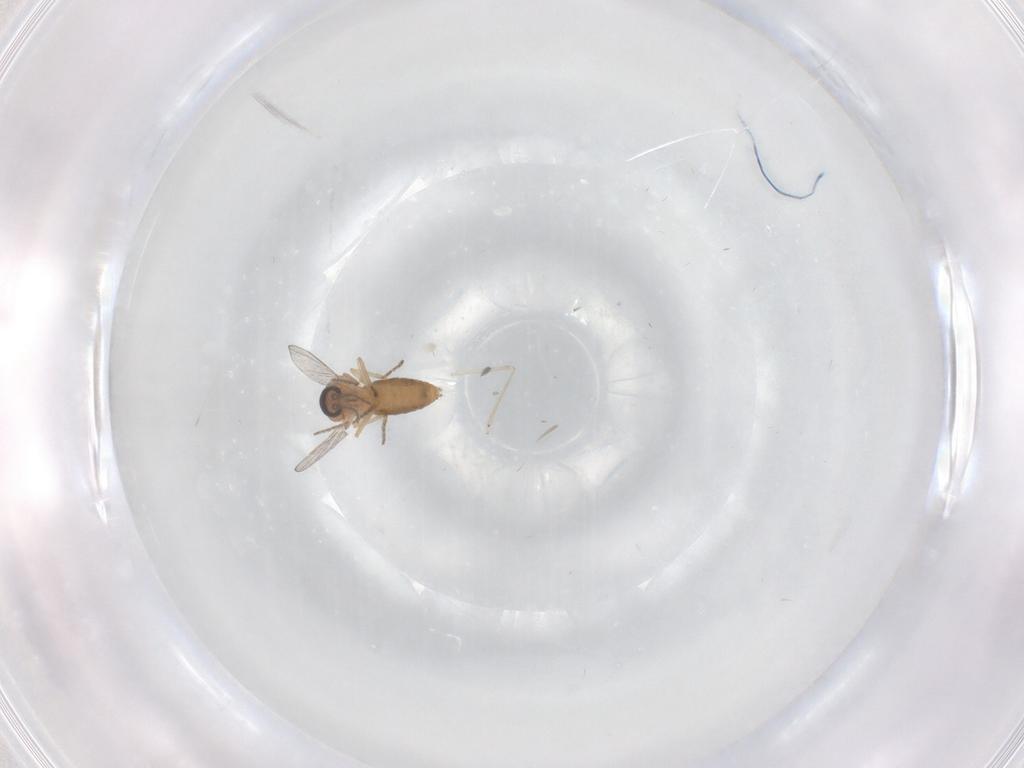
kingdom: Animalia
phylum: Arthropoda
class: Insecta
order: Diptera
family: Ceratopogonidae
